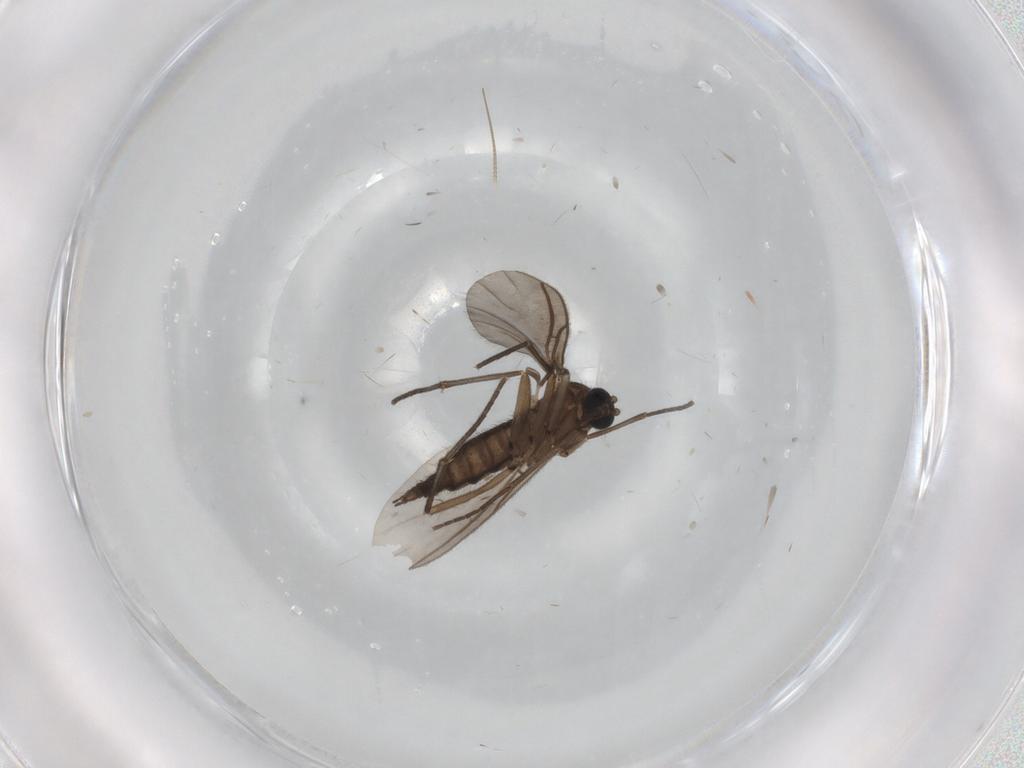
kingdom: Animalia
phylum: Arthropoda
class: Insecta
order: Diptera
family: Sciaridae
